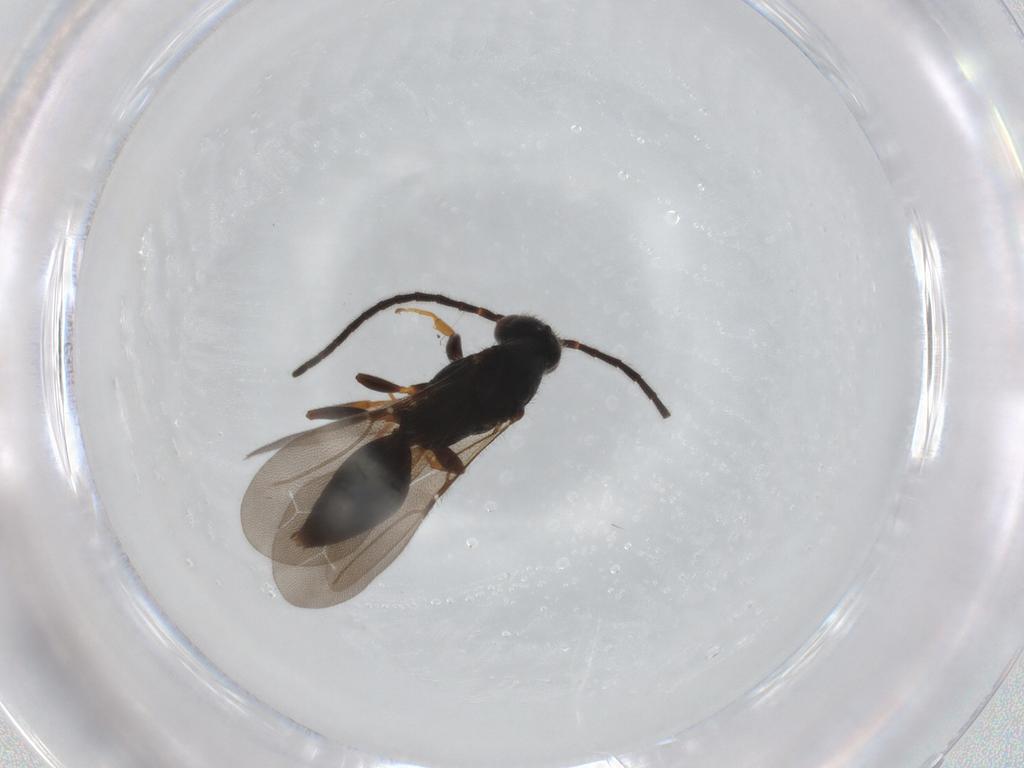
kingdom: Animalia
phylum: Arthropoda
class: Insecta
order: Hymenoptera
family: Bethylidae
